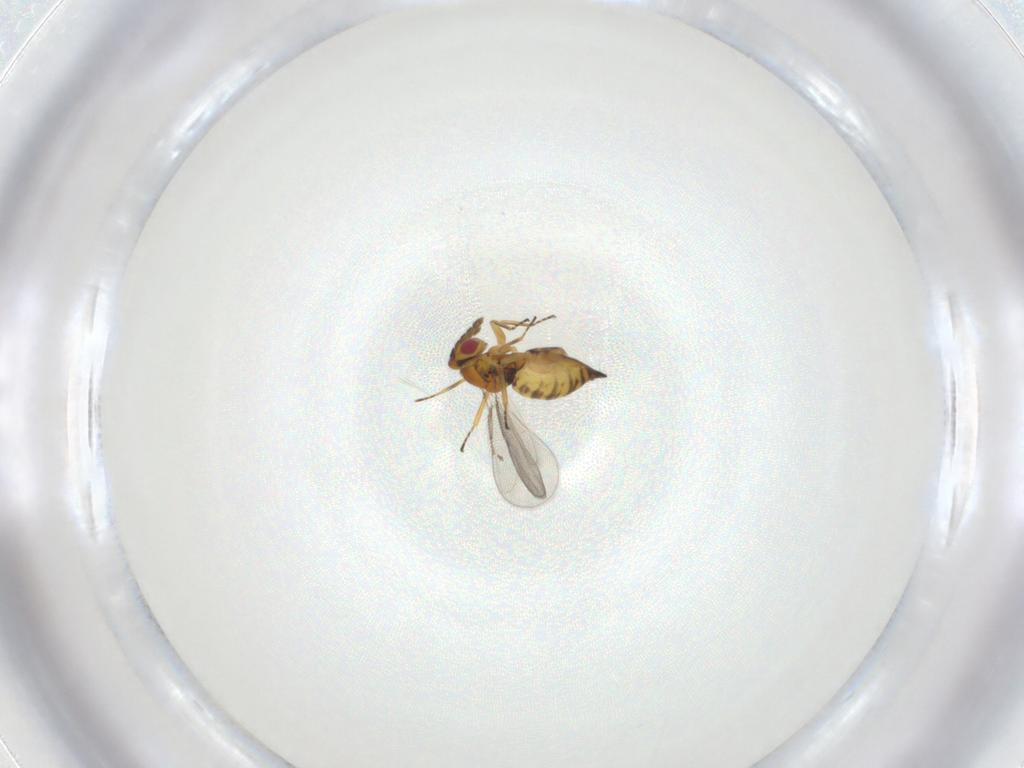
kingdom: Animalia
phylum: Arthropoda
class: Insecta
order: Hymenoptera
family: Eulophidae
